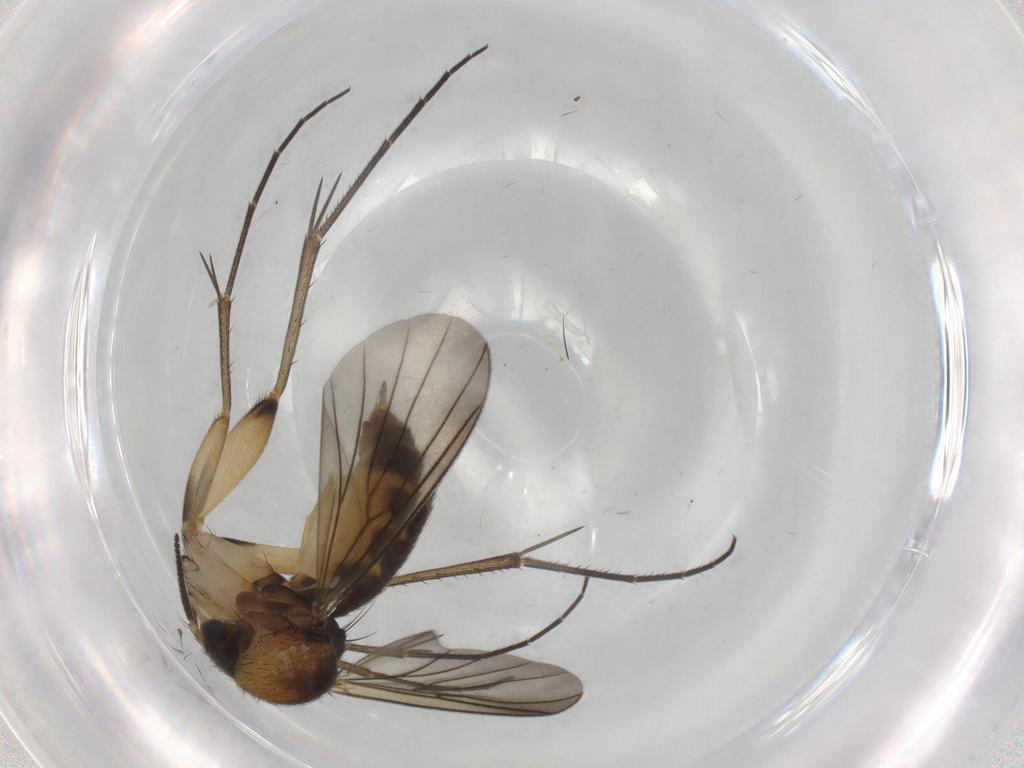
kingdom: Animalia
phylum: Arthropoda
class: Insecta
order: Diptera
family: Mycetophilidae
